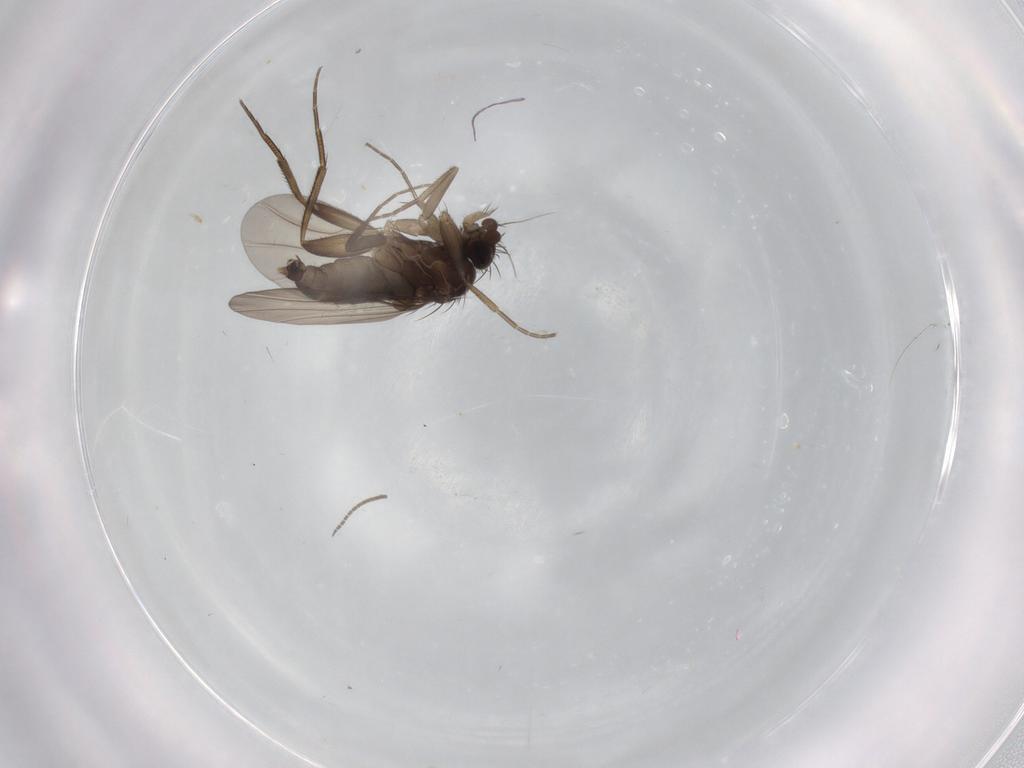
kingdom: Animalia
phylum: Arthropoda
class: Insecta
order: Diptera
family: Phoridae
